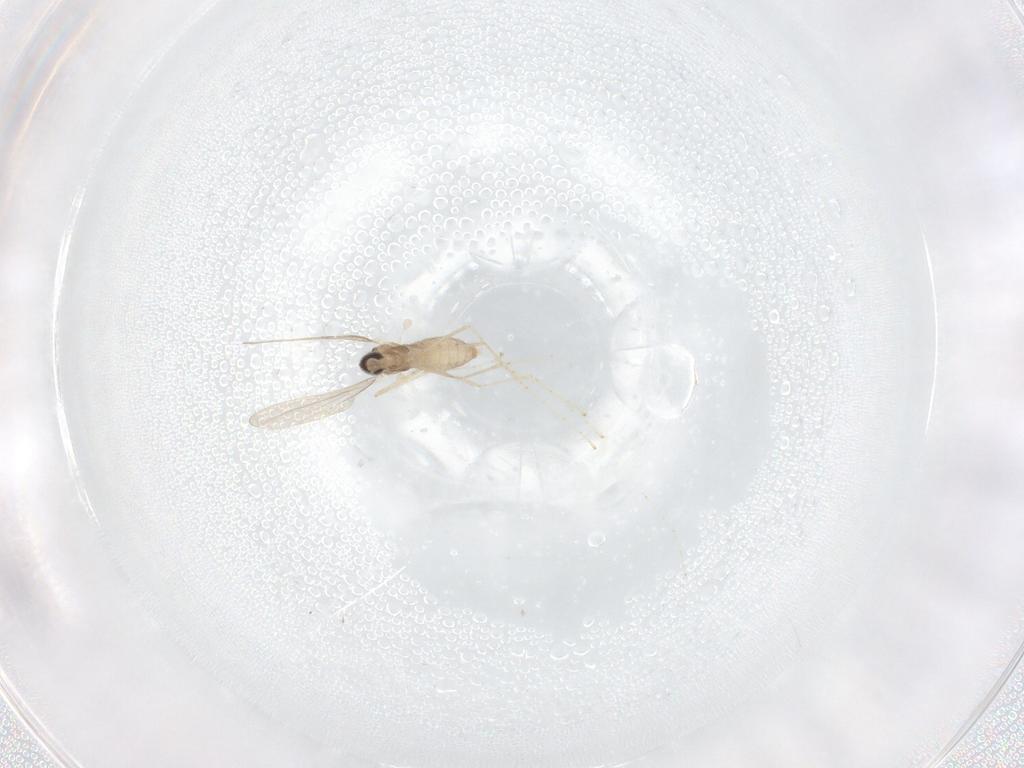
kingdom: Animalia
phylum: Arthropoda
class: Insecta
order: Diptera
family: Cecidomyiidae
